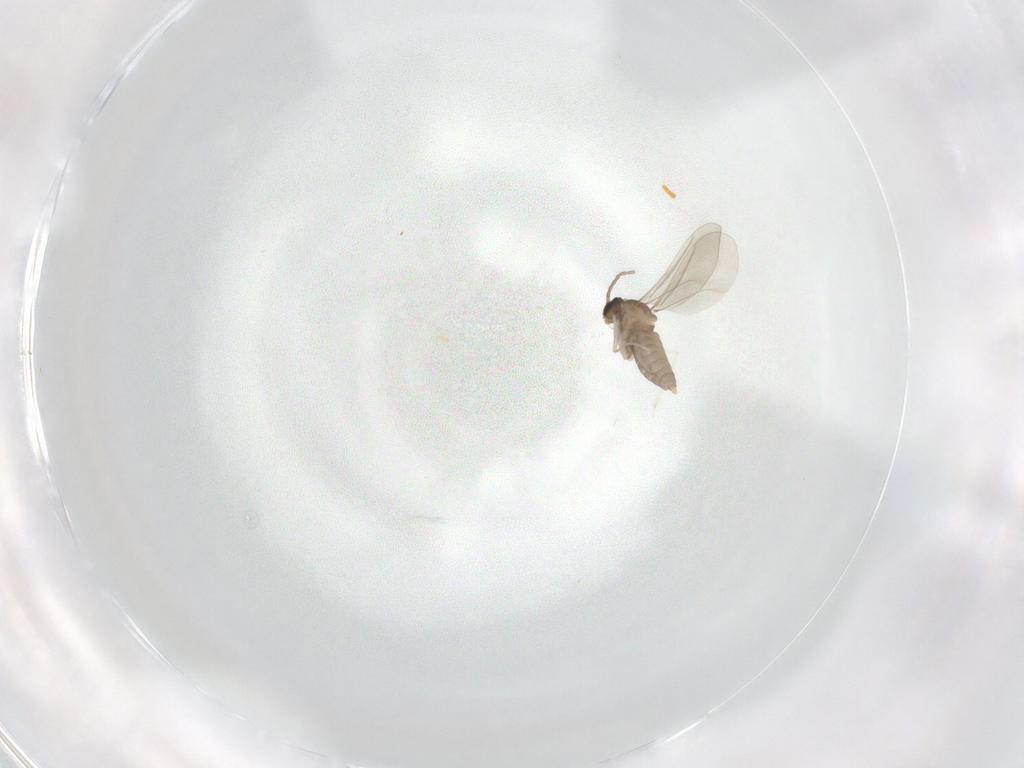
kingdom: Animalia
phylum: Arthropoda
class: Insecta
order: Diptera
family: Cecidomyiidae
